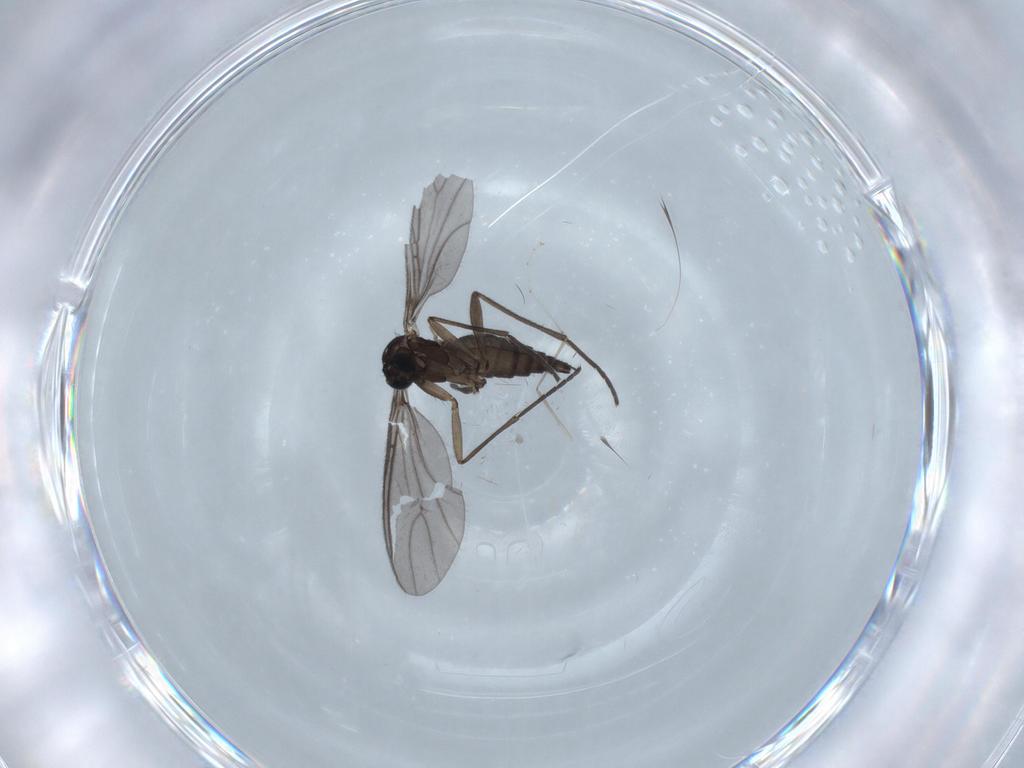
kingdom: Animalia
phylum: Arthropoda
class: Insecta
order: Diptera
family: Sciaridae
